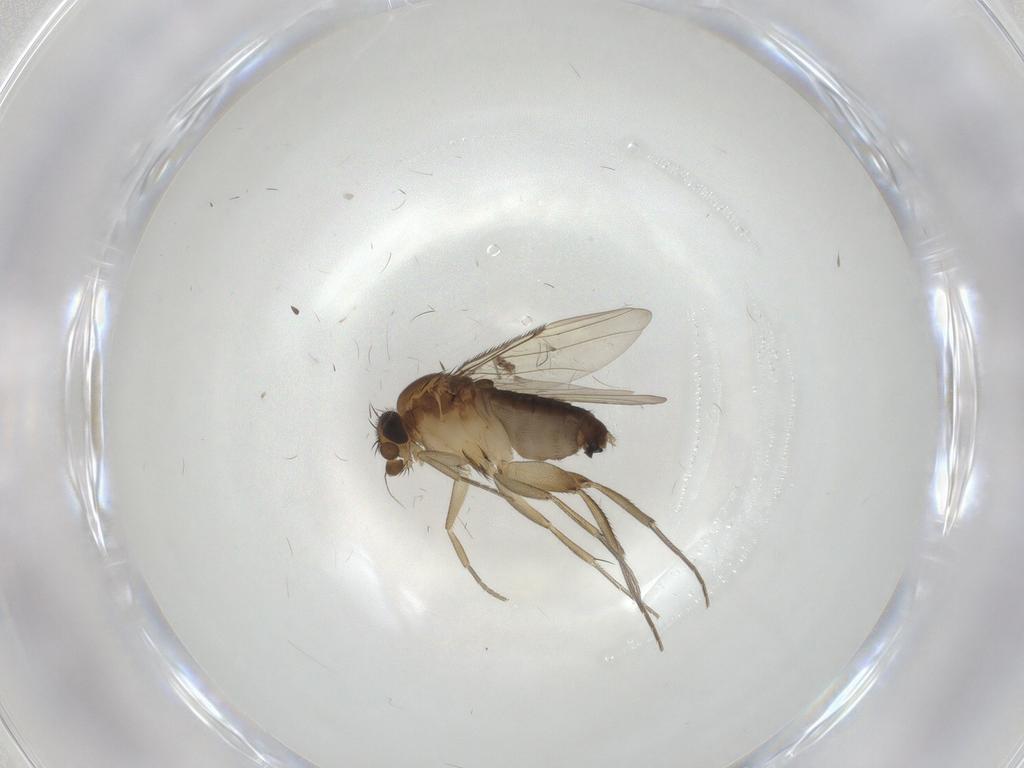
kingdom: Animalia
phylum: Arthropoda
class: Insecta
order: Diptera
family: Phoridae
